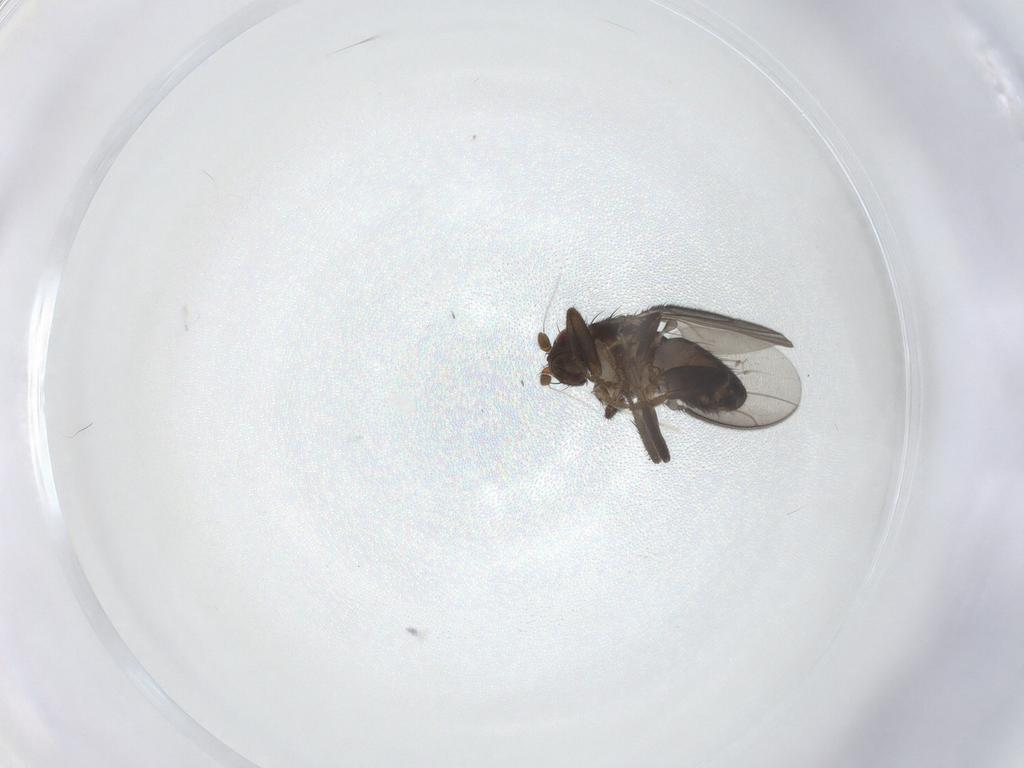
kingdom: Animalia
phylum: Arthropoda
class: Insecta
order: Diptera
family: Sphaeroceridae
